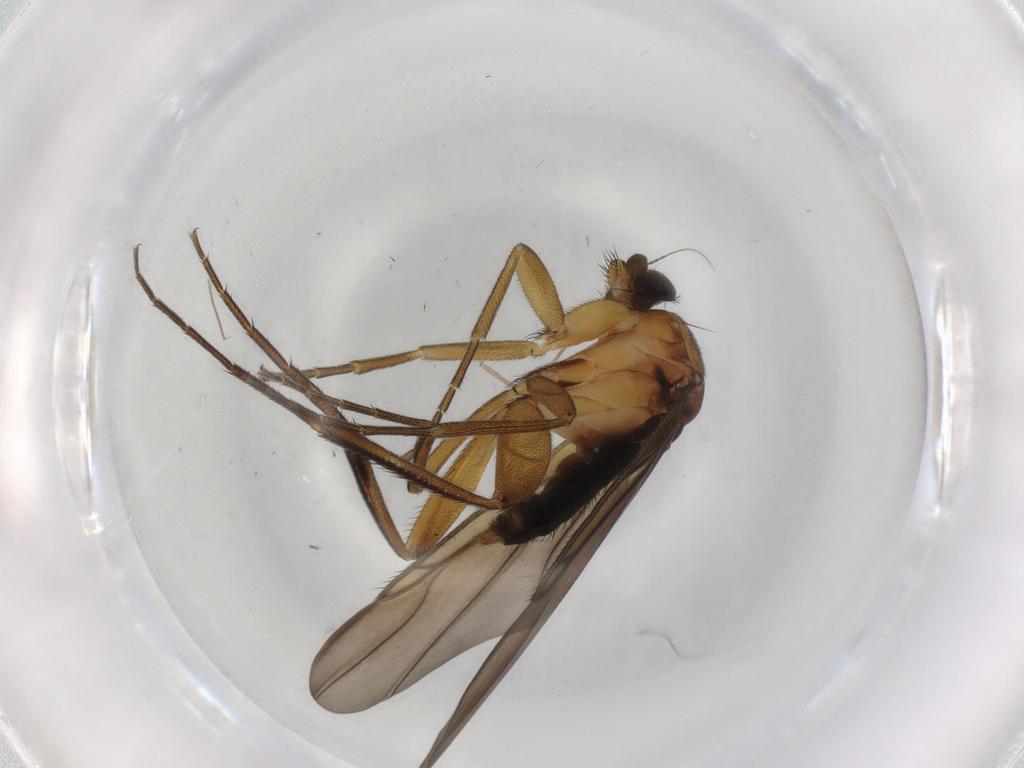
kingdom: Animalia
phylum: Arthropoda
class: Insecta
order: Diptera
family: Phoridae
